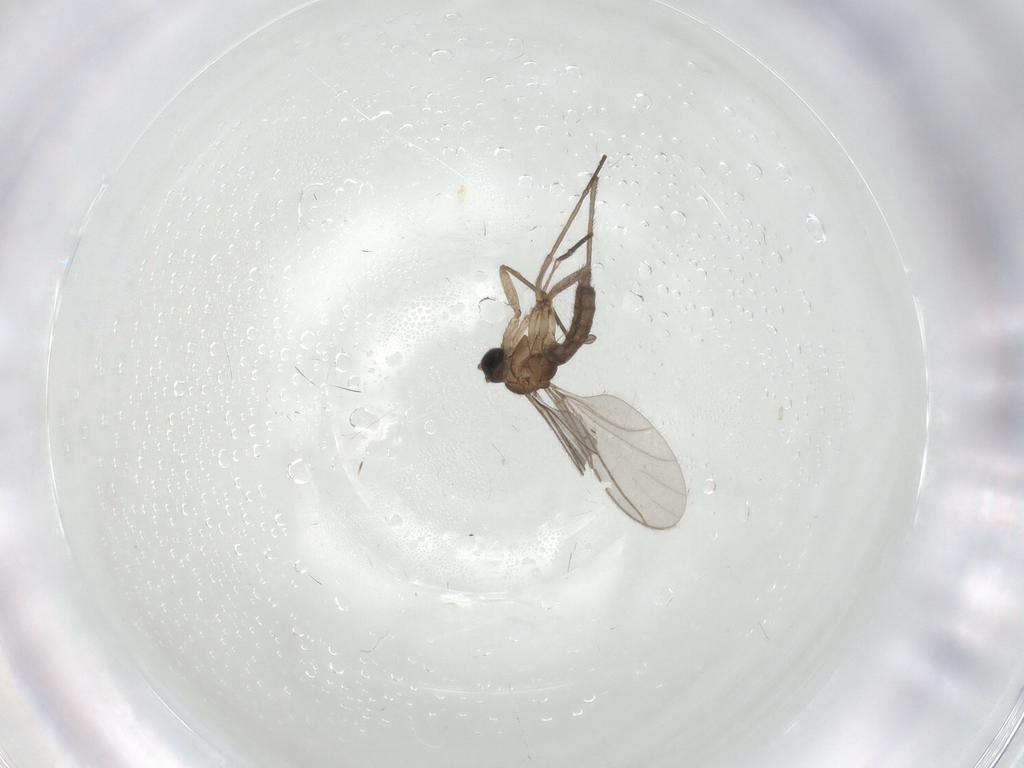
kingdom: Animalia
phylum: Arthropoda
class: Insecta
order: Diptera
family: Sciaridae
